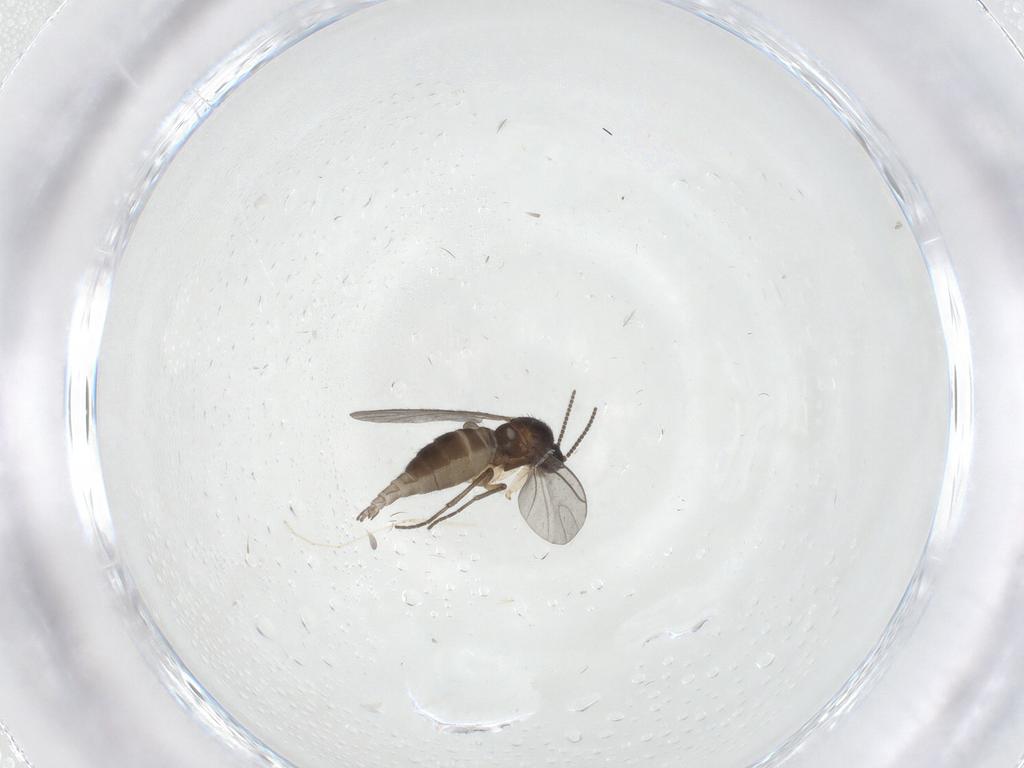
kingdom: Animalia
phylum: Arthropoda
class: Insecta
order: Diptera
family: Sciaridae
